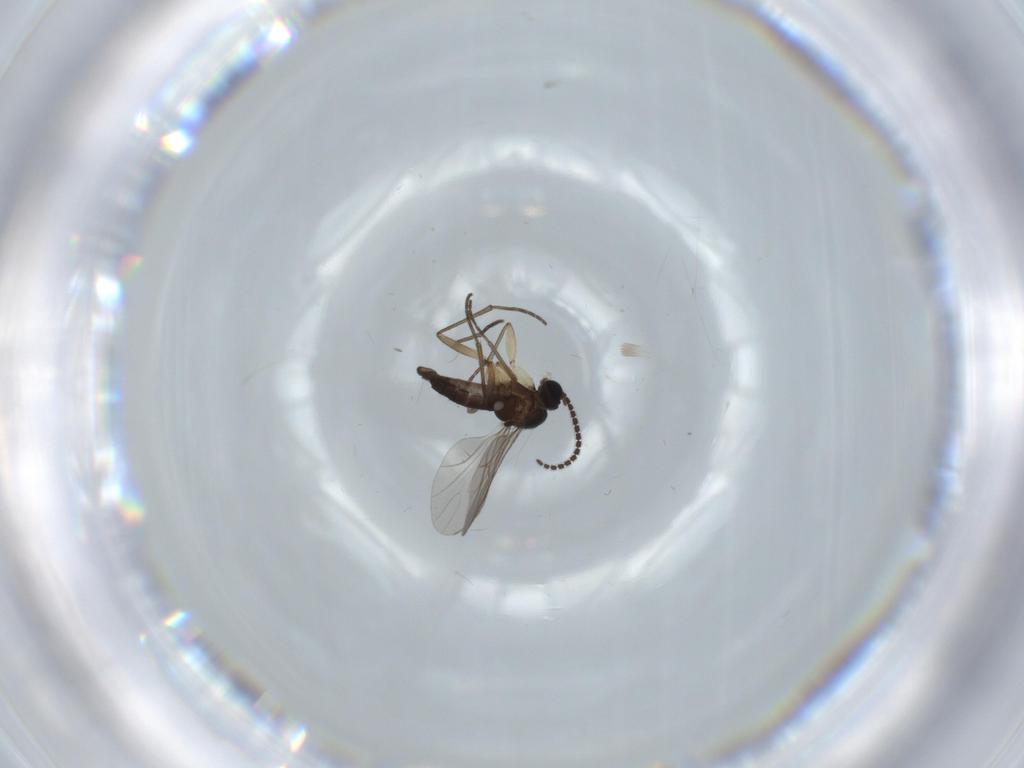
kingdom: Animalia
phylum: Arthropoda
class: Insecta
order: Diptera
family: Sciaridae
